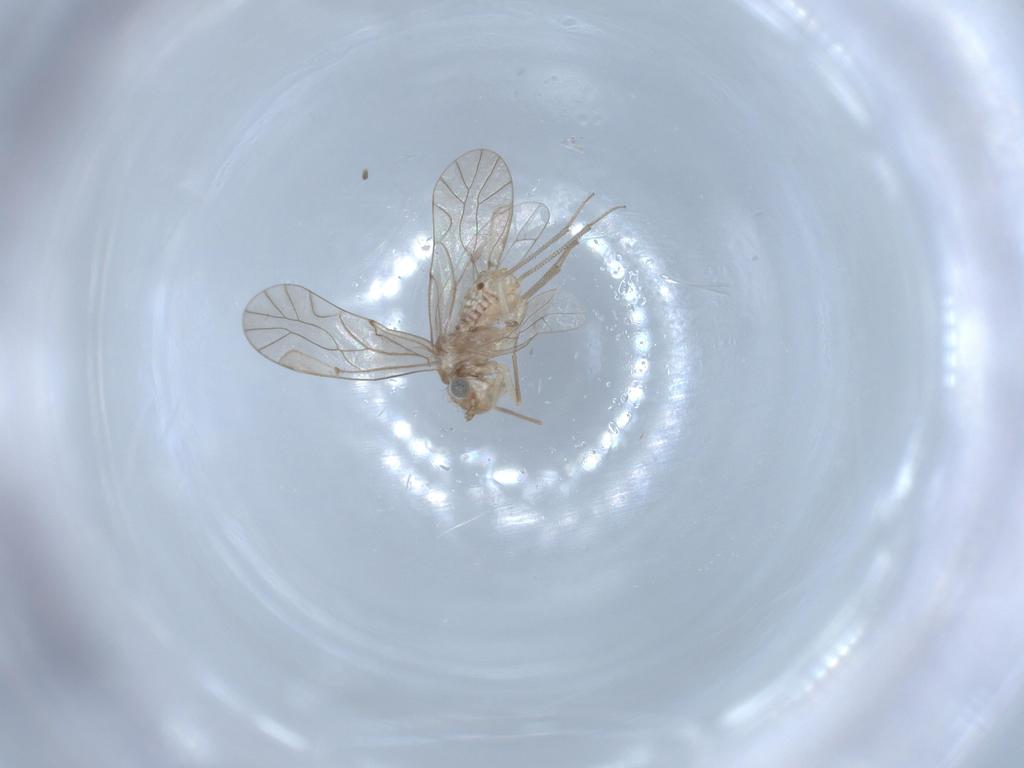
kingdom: Animalia
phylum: Arthropoda
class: Insecta
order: Psocodea
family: Lachesillidae
